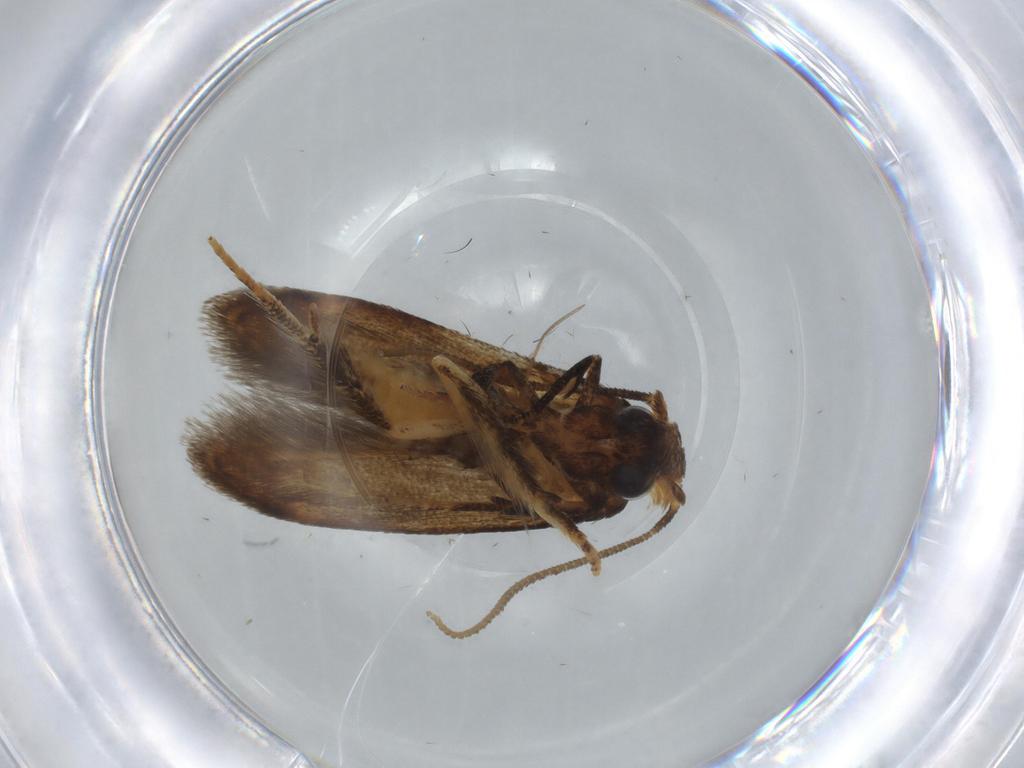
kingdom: Animalia
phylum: Arthropoda
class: Insecta
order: Lepidoptera
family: Blastobasidae
